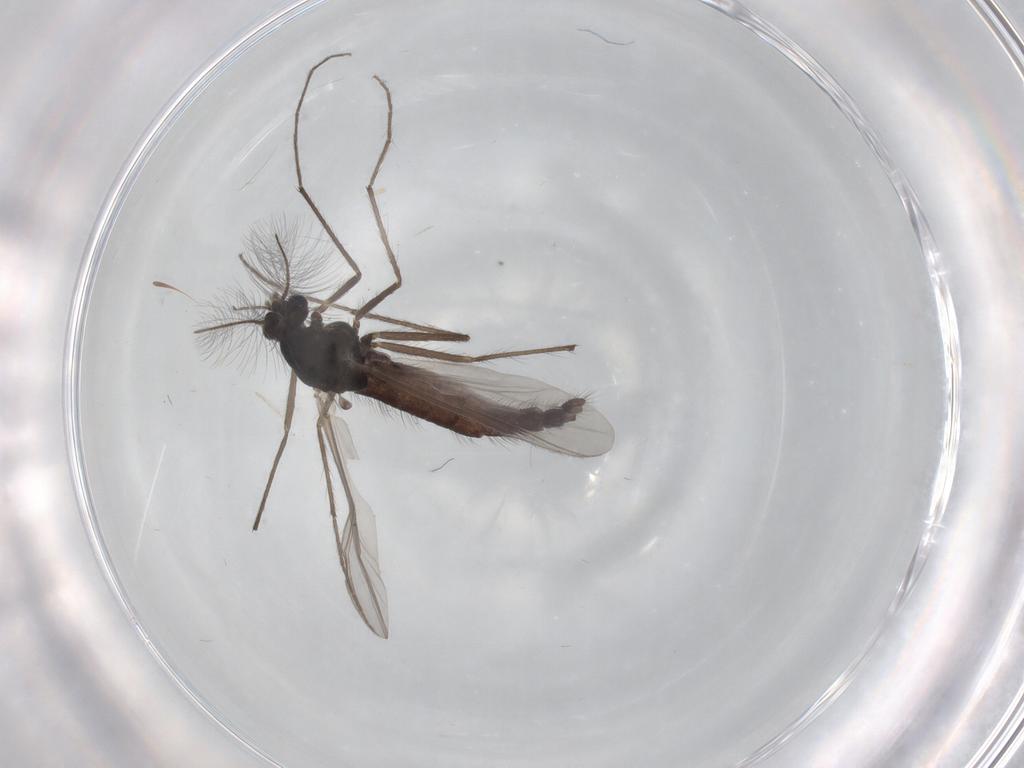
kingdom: Animalia
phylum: Arthropoda
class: Insecta
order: Diptera
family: Chironomidae
